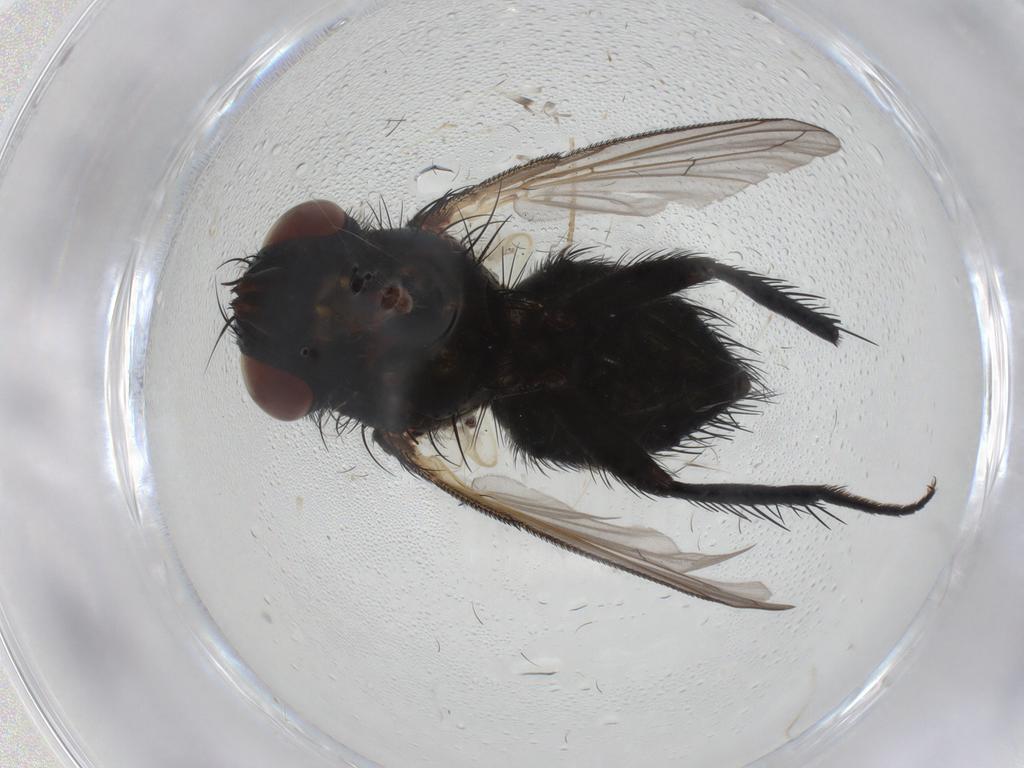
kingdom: Animalia
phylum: Arthropoda
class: Insecta
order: Diptera
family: Tachinidae
